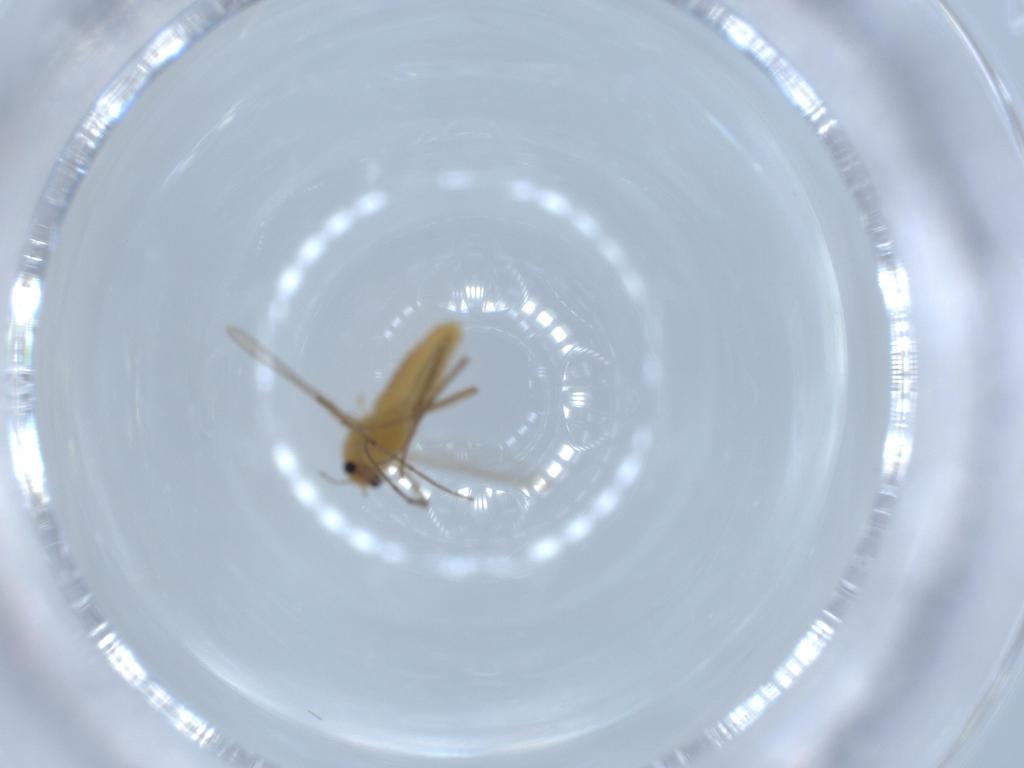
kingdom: Animalia
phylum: Arthropoda
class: Insecta
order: Diptera
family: Chironomidae
